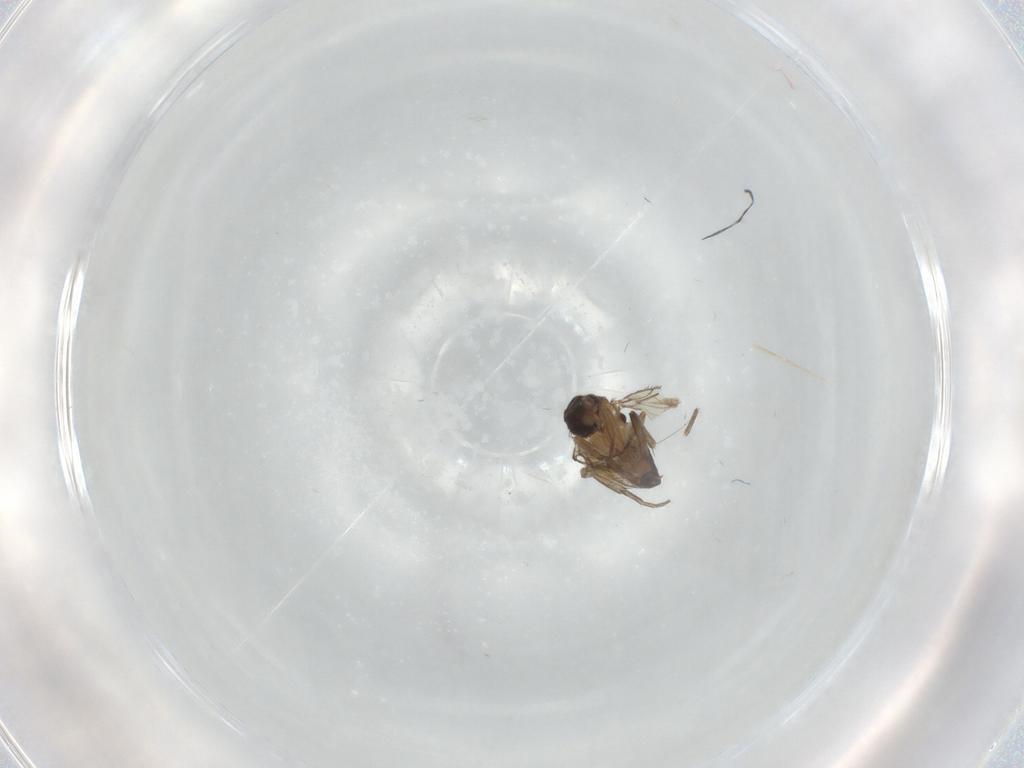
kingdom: Animalia
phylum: Arthropoda
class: Insecta
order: Diptera
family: Phoridae
